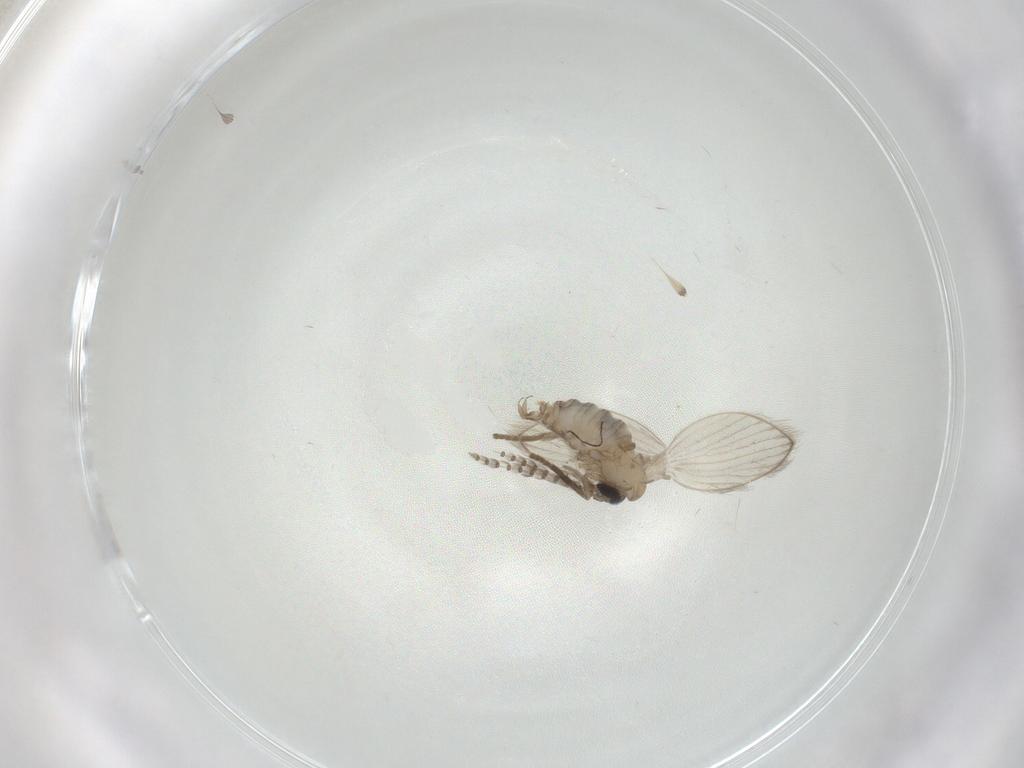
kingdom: Animalia
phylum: Arthropoda
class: Insecta
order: Diptera
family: Psychodidae
